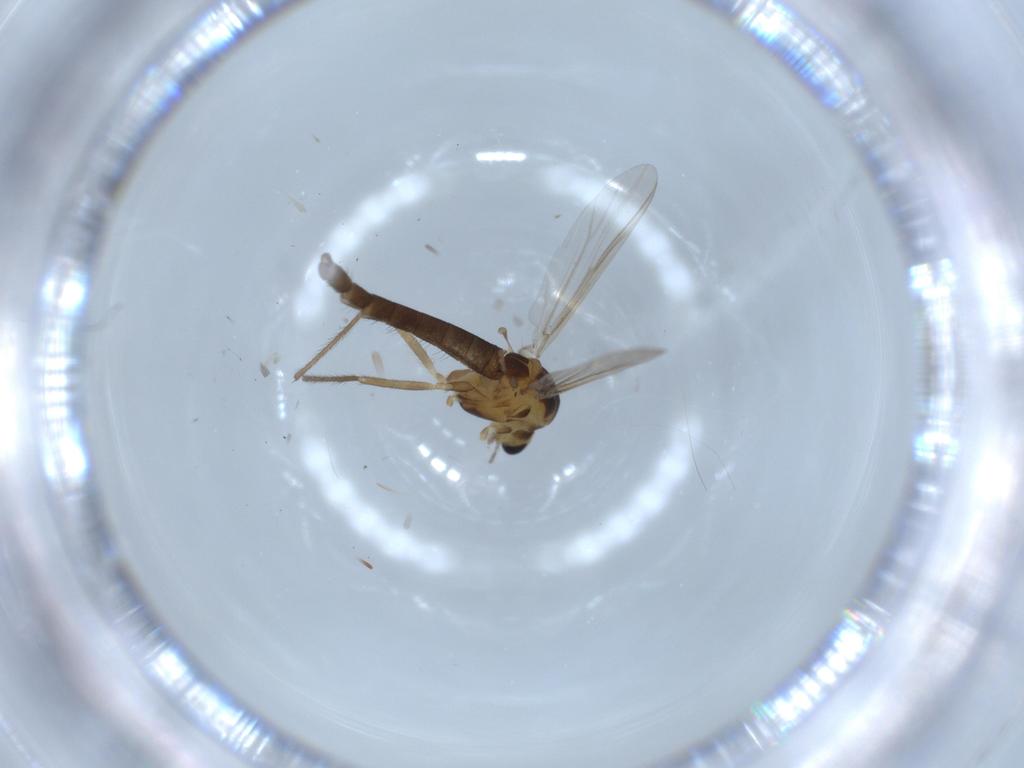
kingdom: Animalia
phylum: Arthropoda
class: Insecta
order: Diptera
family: Chironomidae
